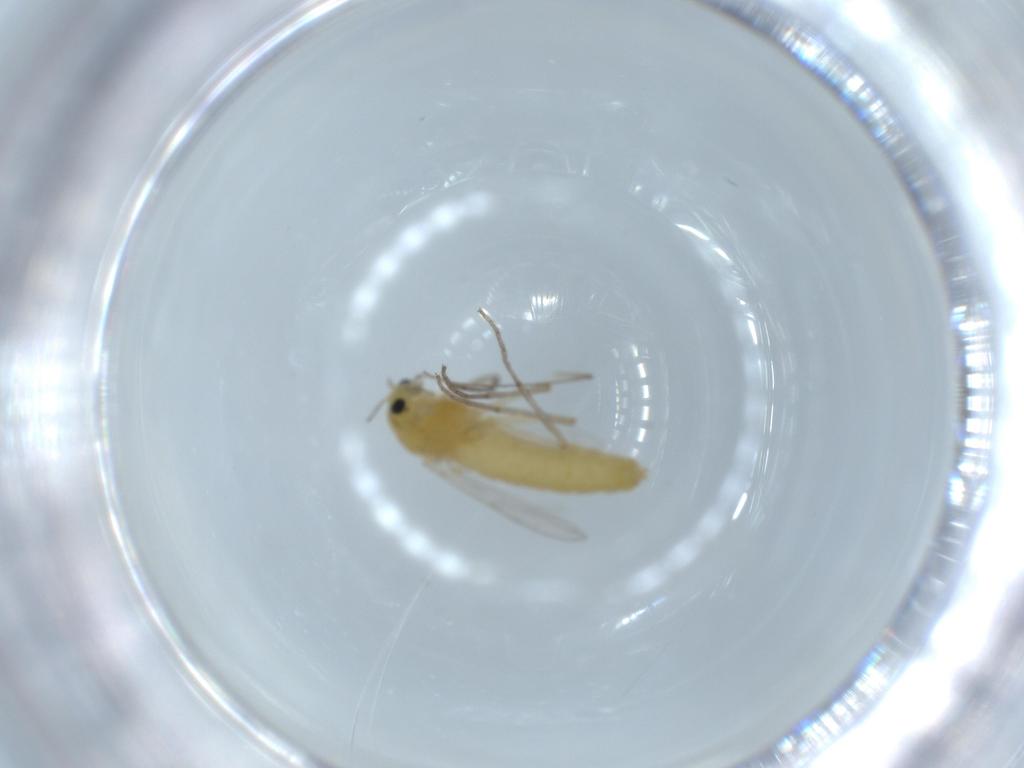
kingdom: Animalia
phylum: Arthropoda
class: Insecta
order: Diptera
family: Chironomidae
